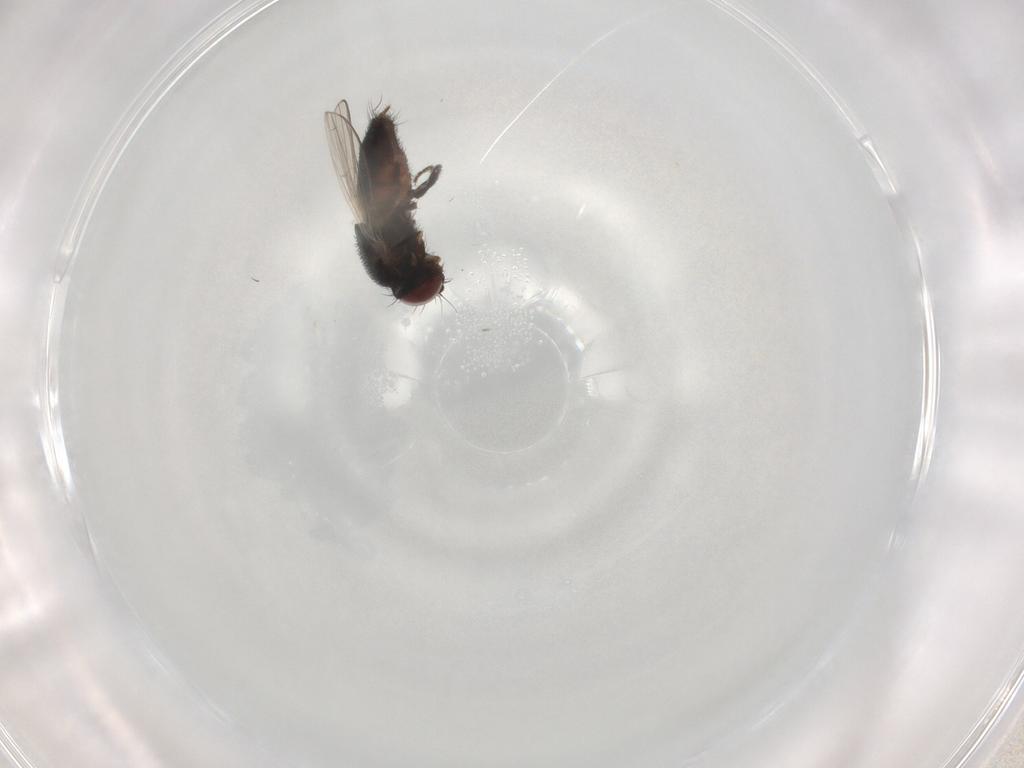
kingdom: Animalia
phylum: Arthropoda
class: Insecta
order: Diptera
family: Milichiidae
